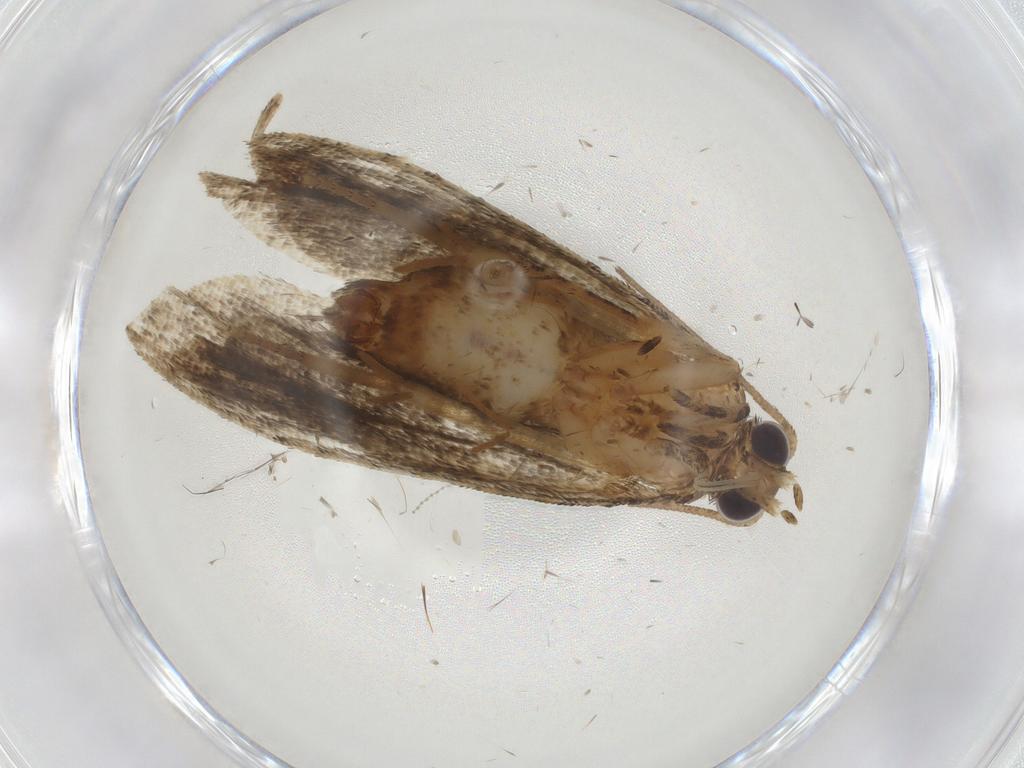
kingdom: Animalia
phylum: Arthropoda
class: Insecta
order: Lepidoptera
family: Tortricidae
